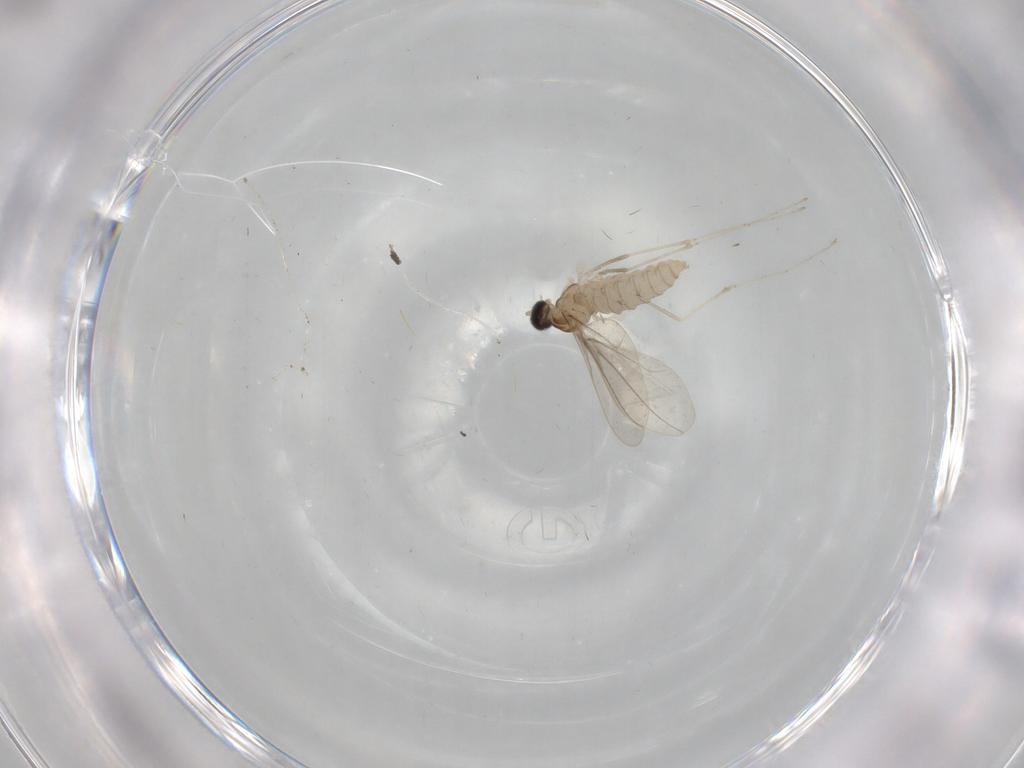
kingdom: Animalia
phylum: Arthropoda
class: Insecta
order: Diptera
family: Cecidomyiidae
